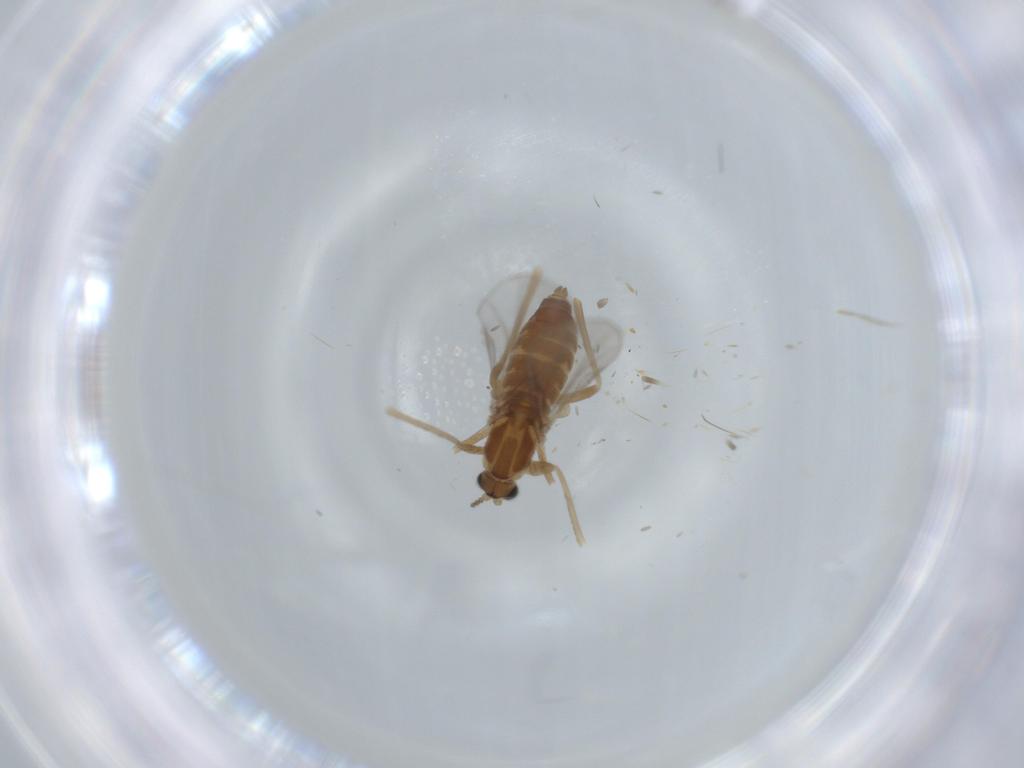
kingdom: Animalia
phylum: Arthropoda
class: Insecta
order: Diptera
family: Cecidomyiidae
